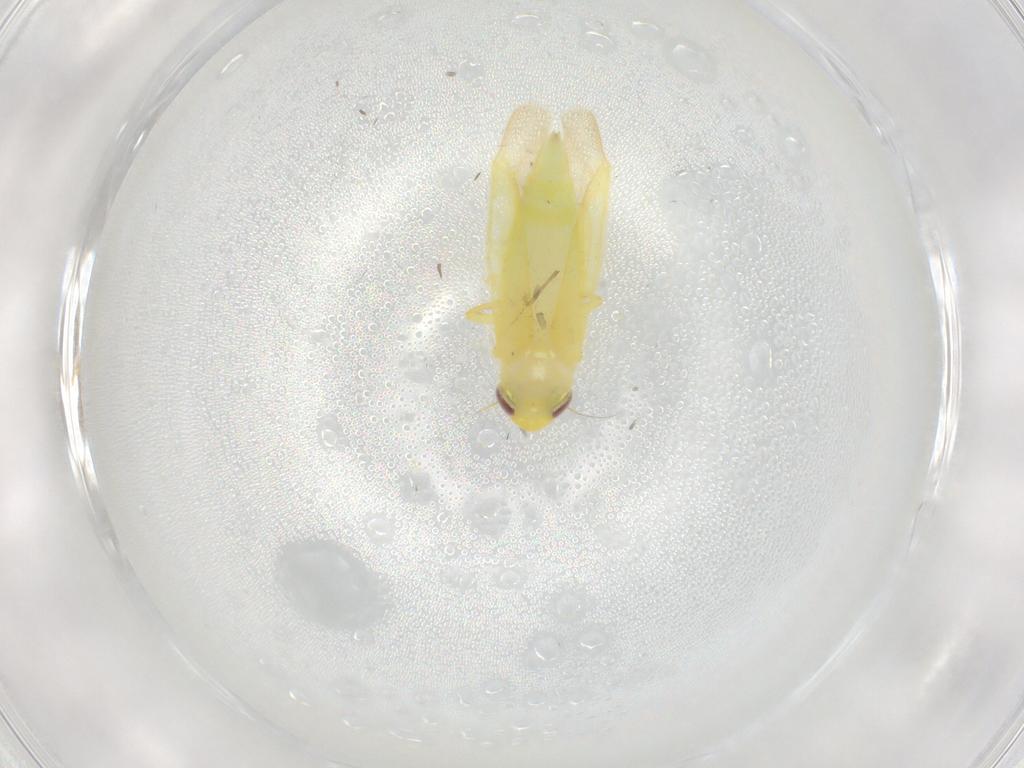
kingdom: Animalia
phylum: Arthropoda
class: Insecta
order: Hemiptera
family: Cicadellidae
